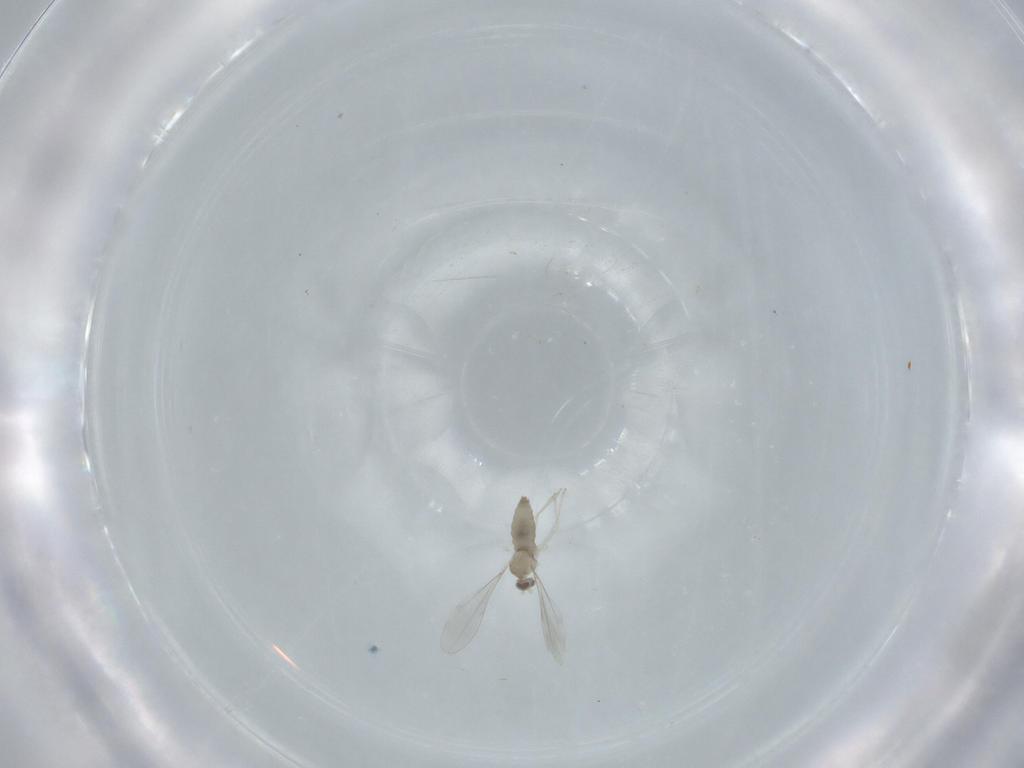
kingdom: Animalia
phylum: Arthropoda
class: Insecta
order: Diptera
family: Cecidomyiidae
